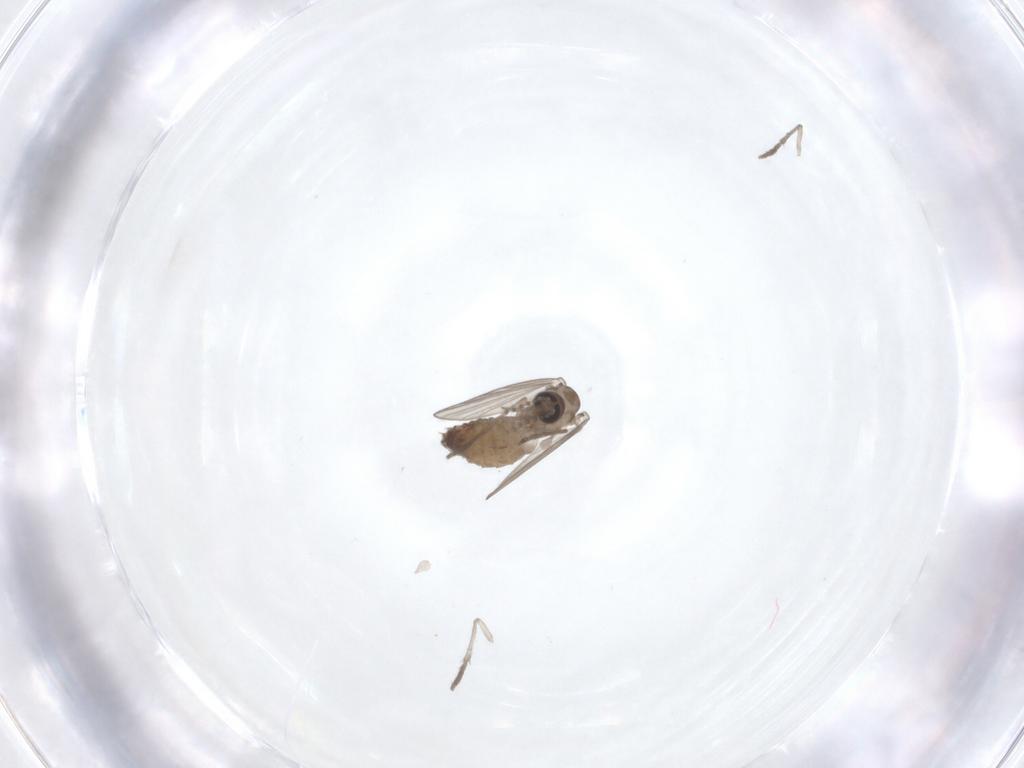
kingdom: Animalia
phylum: Arthropoda
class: Insecta
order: Diptera
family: Psychodidae
